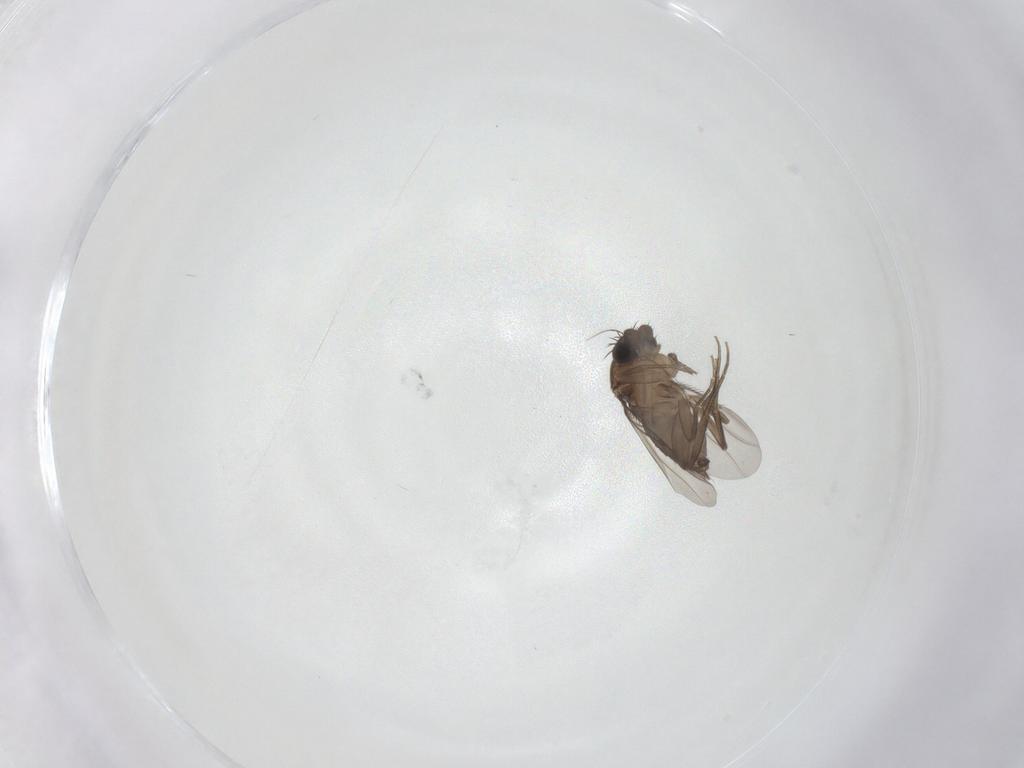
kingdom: Animalia
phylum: Arthropoda
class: Insecta
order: Diptera
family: Phoridae
